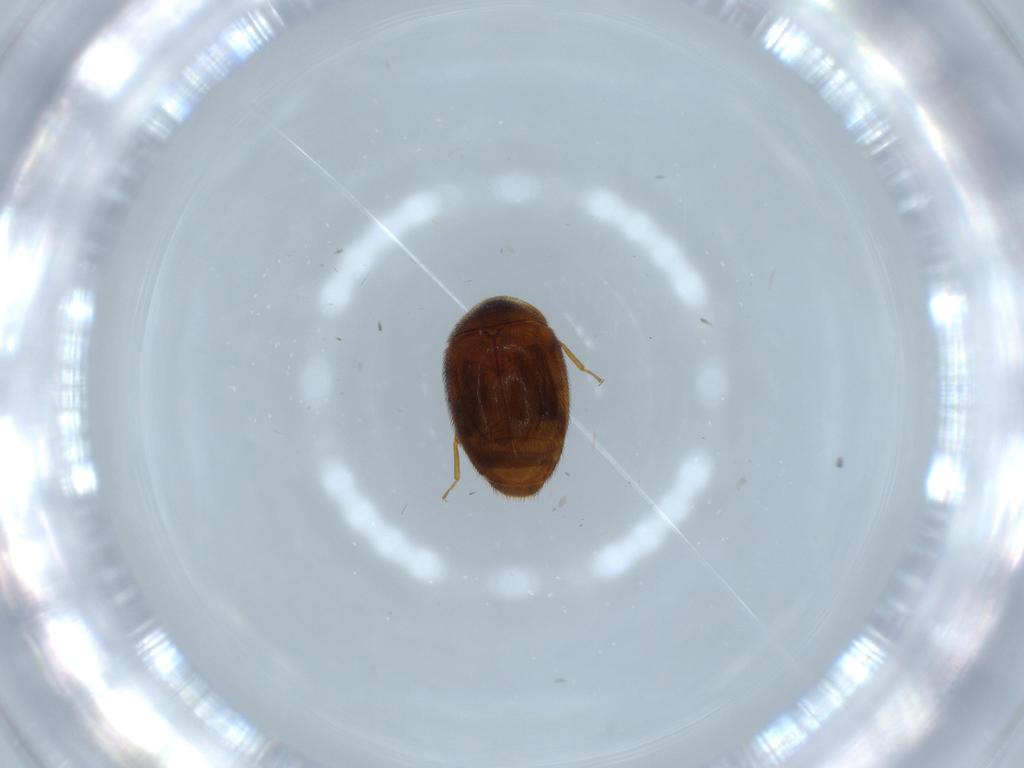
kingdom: Animalia
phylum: Arthropoda
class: Insecta
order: Coleoptera
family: Corylophidae
